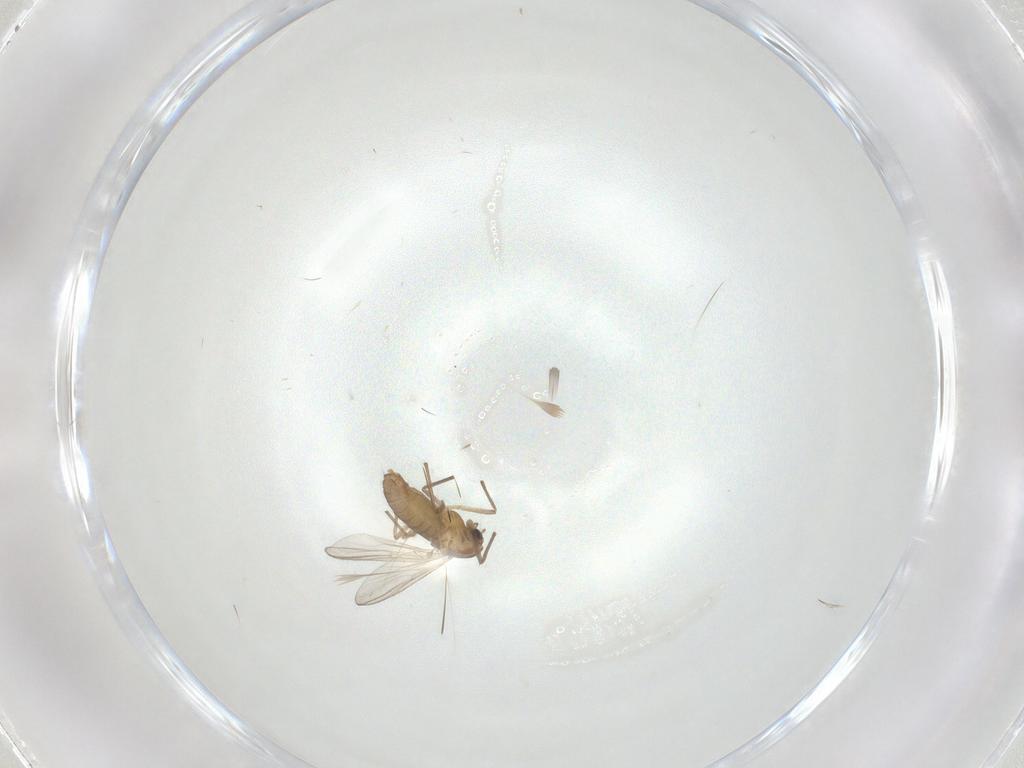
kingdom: Animalia
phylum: Arthropoda
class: Insecta
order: Diptera
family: Chironomidae
